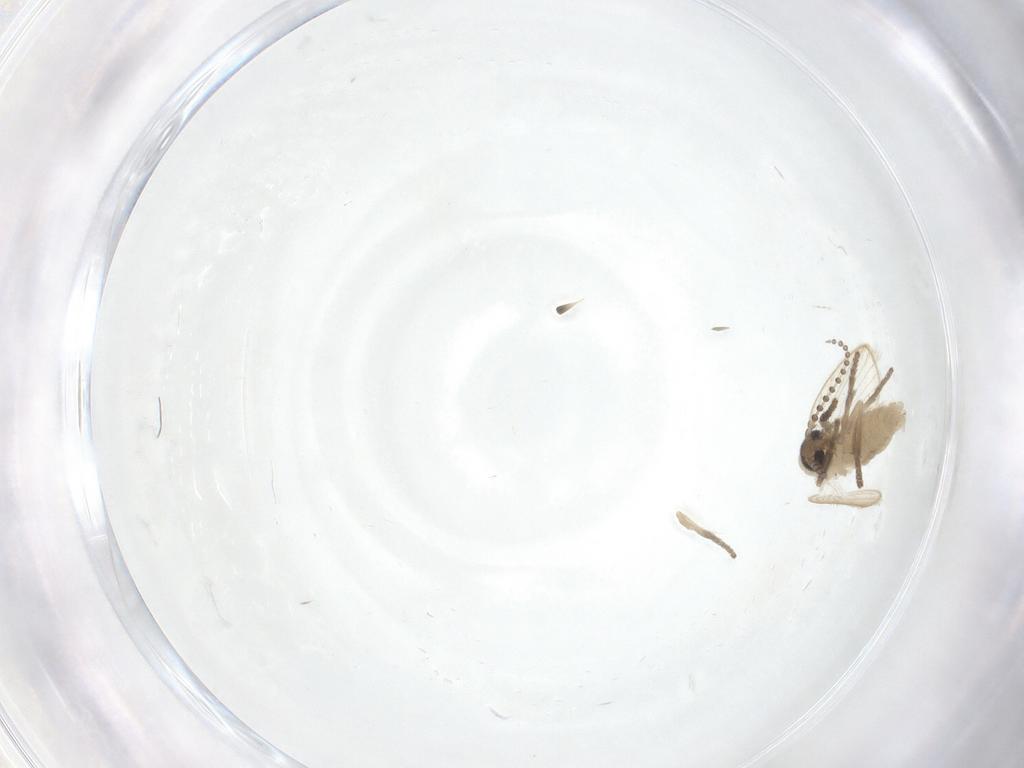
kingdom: Animalia
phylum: Arthropoda
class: Insecta
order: Diptera
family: Psychodidae
